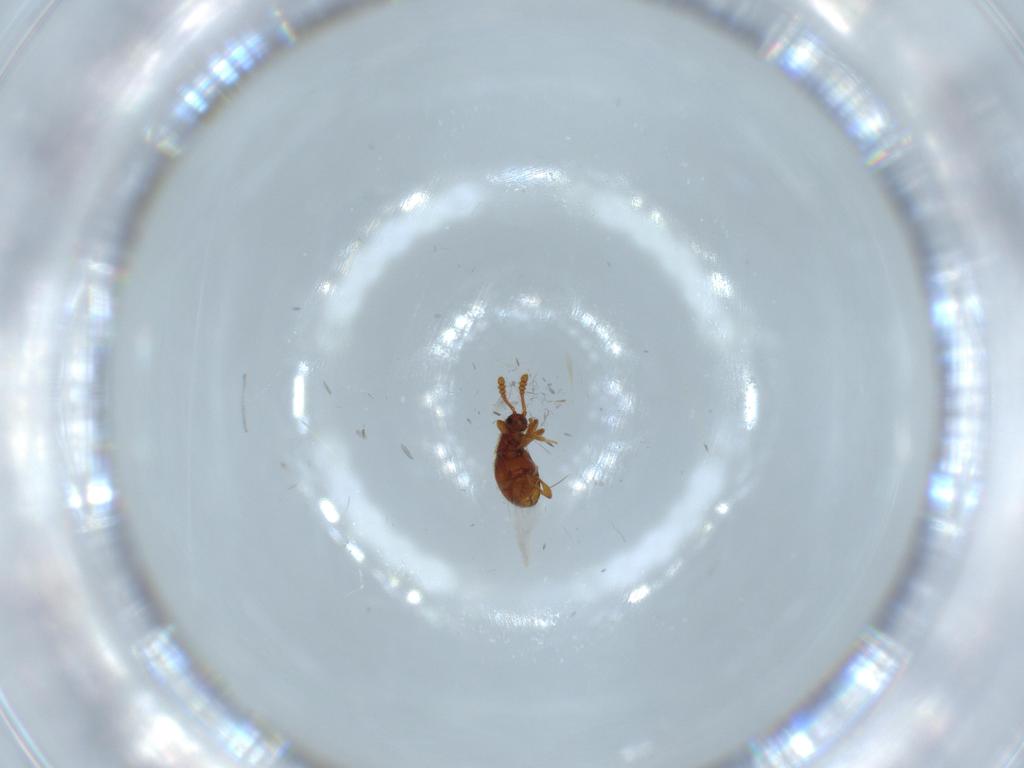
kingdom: Animalia
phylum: Arthropoda
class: Insecta
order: Coleoptera
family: Staphylinidae
